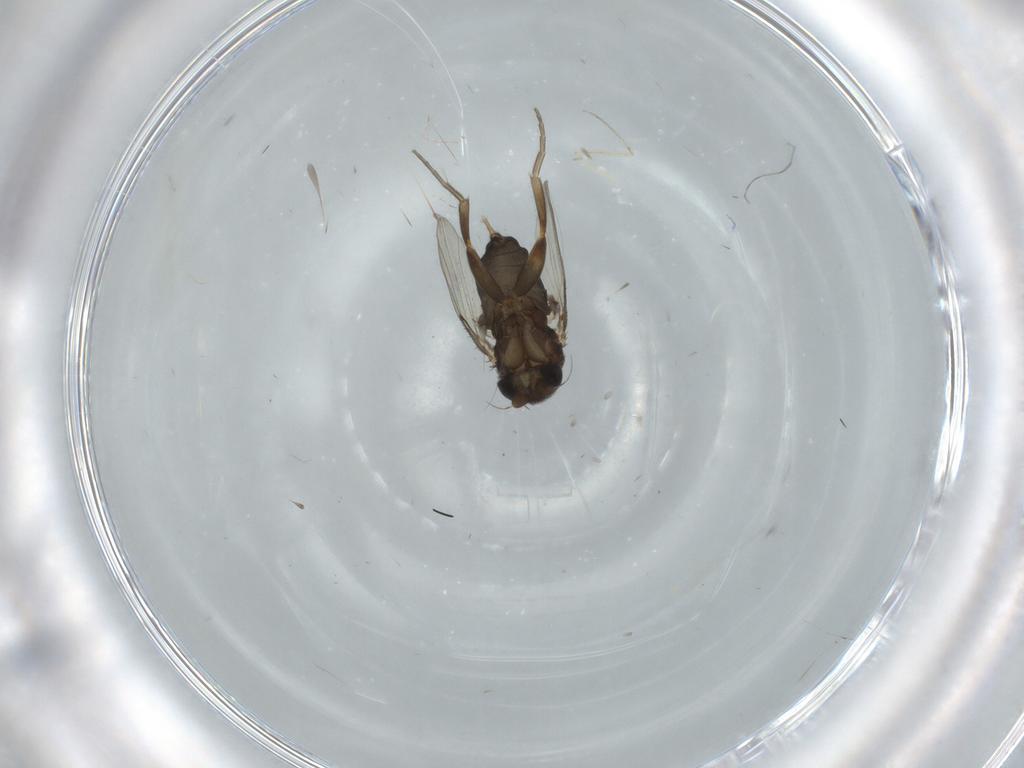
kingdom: Animalia
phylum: Arthropoda
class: Insecta
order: Diptera
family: Cecidomyiidae
